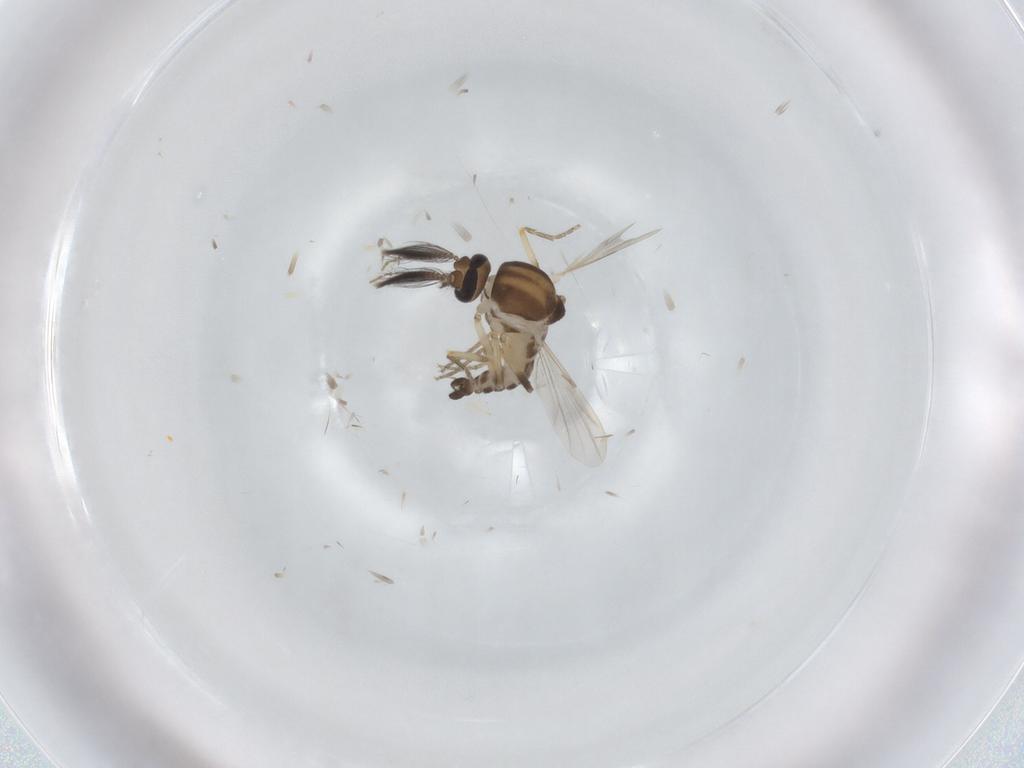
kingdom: Animalia
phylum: Arthropoda
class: Insecta
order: Diptera
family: Ceratopogonidae
